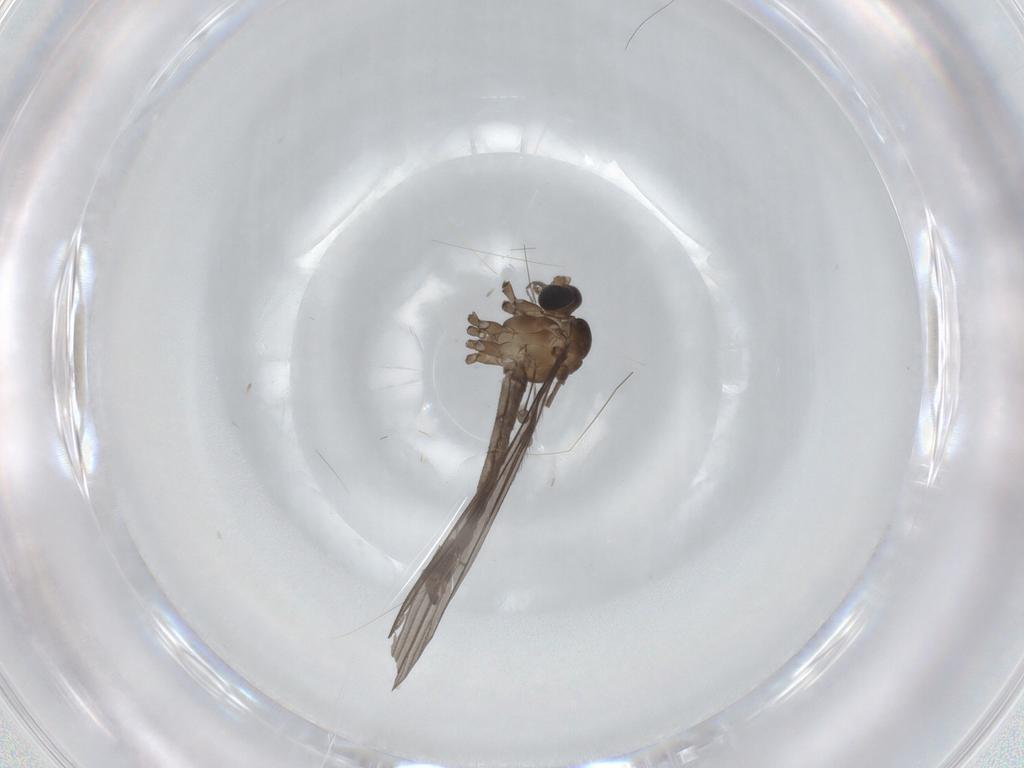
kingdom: Animalia
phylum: Arthropoda
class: Insecta
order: Diptera
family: Limoniidae
